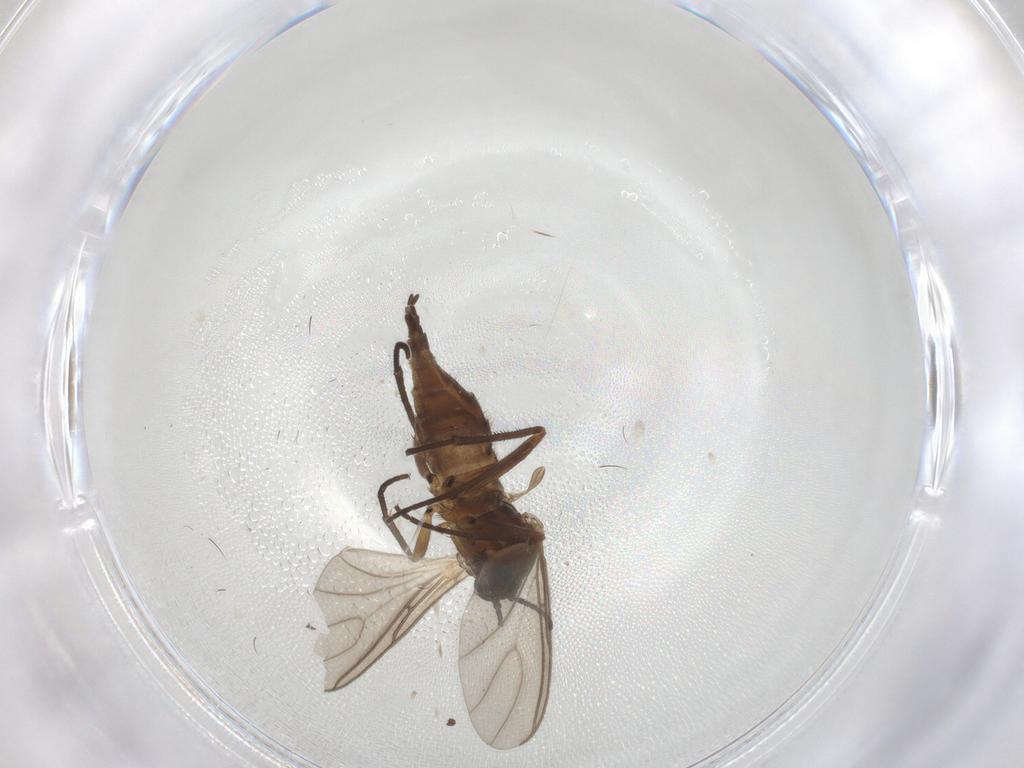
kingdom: Animalia
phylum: Arthropoda
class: Insecta
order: Diptera
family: Sciaridae
